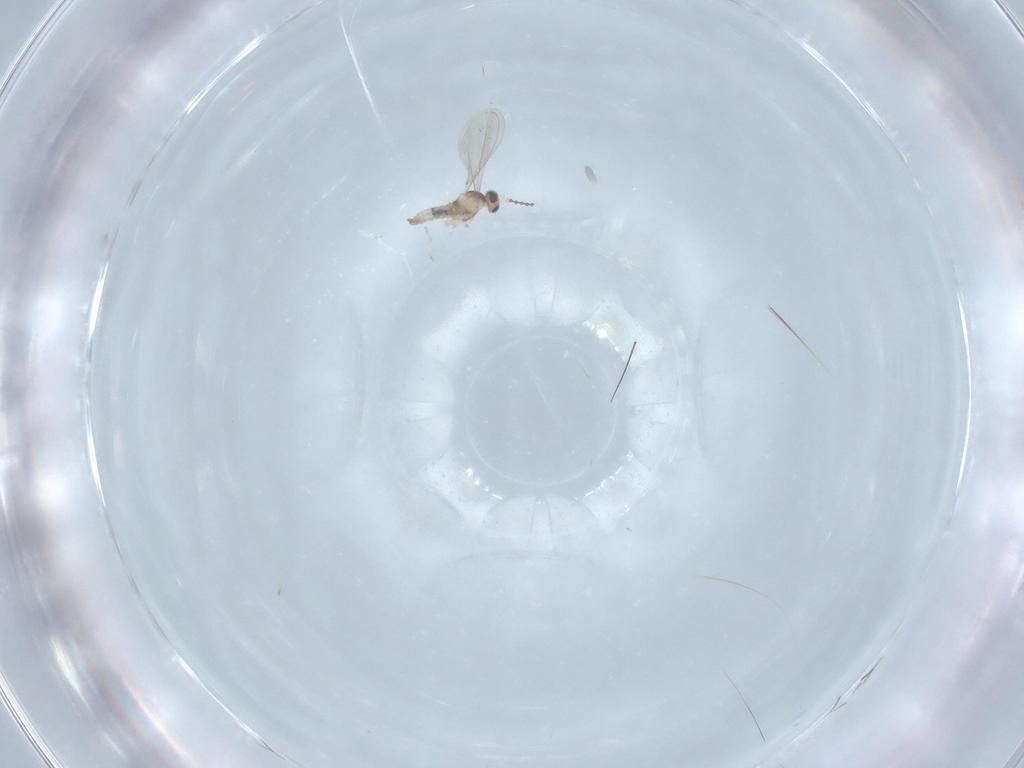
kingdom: Animalia
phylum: Arthropoda
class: Insecta
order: Diptera
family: Cecidomyiidae
